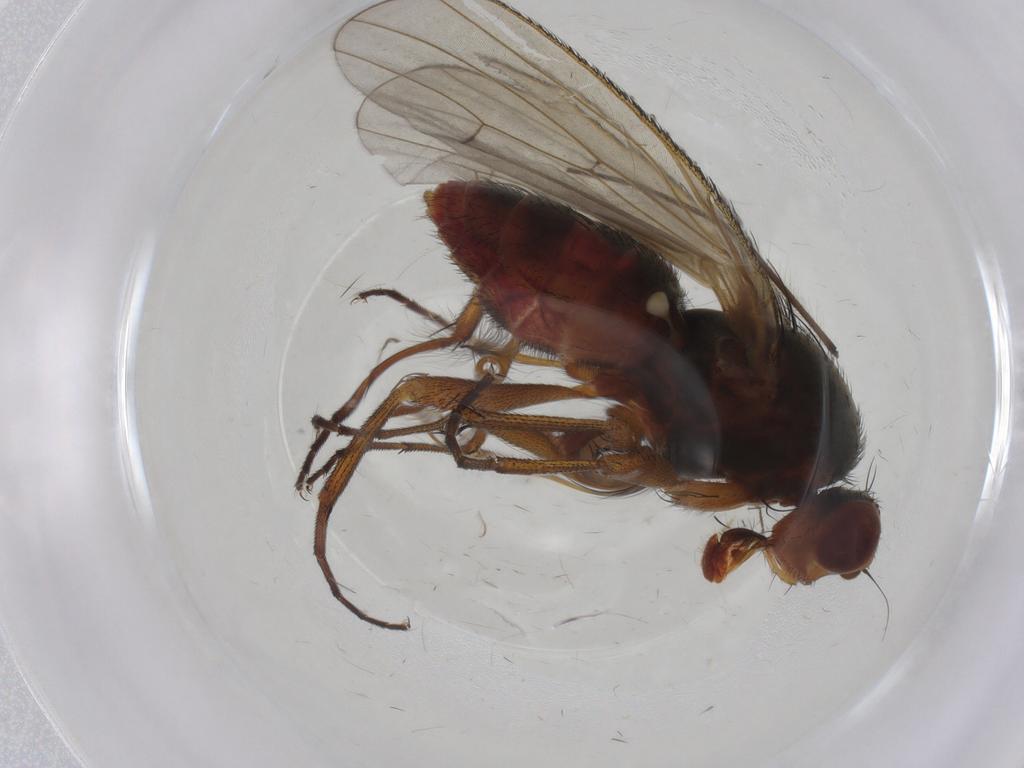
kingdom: Animalia
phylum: Arthropoda
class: Insecta
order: Diptera
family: Heleomyzidae
